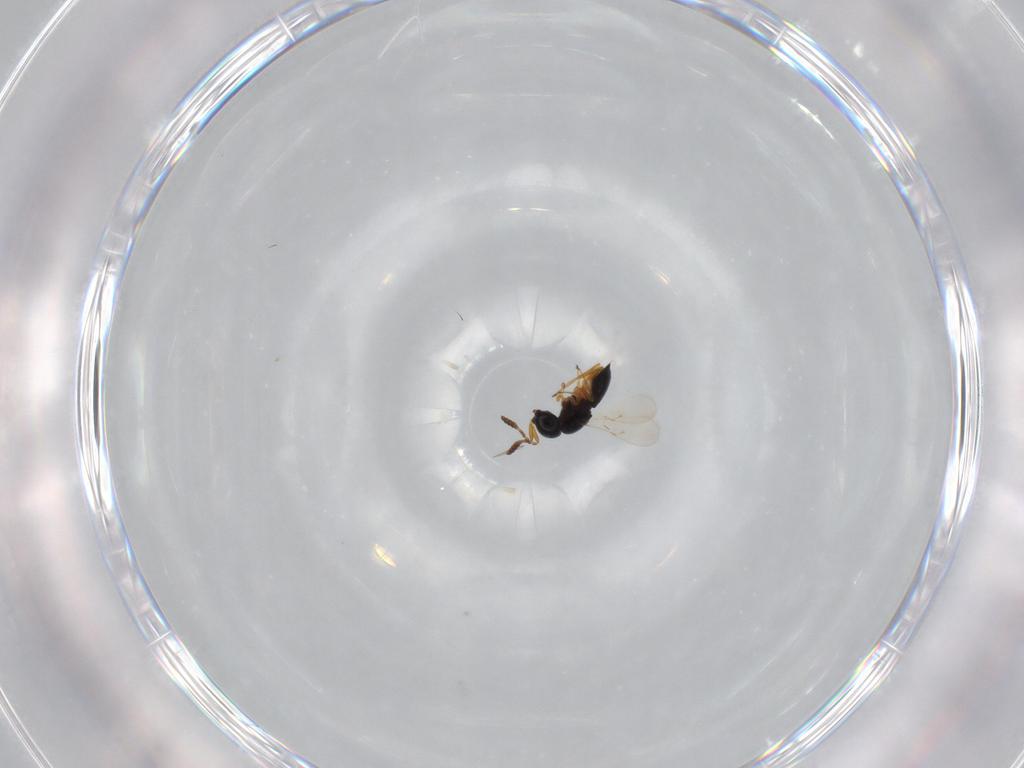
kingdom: Animalia
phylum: Arthropoda
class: Insecta
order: Hymenoptera
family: Scelionidae
